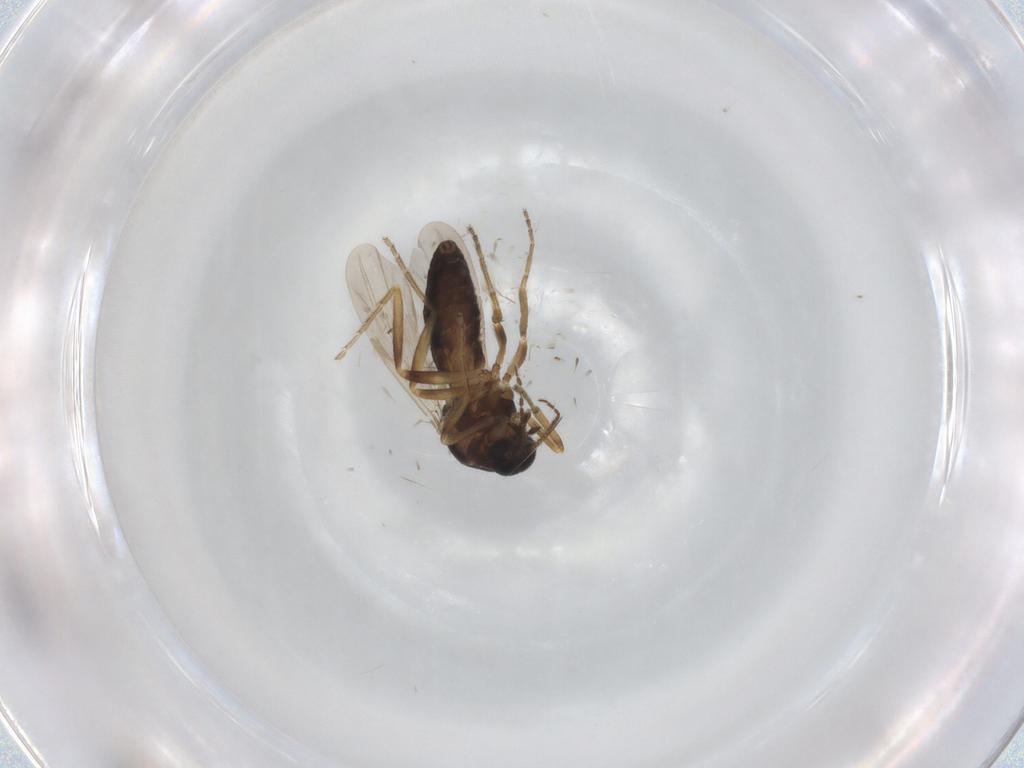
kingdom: Animalia
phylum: Arthropoda
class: Insecta
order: Diptera
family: Ceratopogonidae
